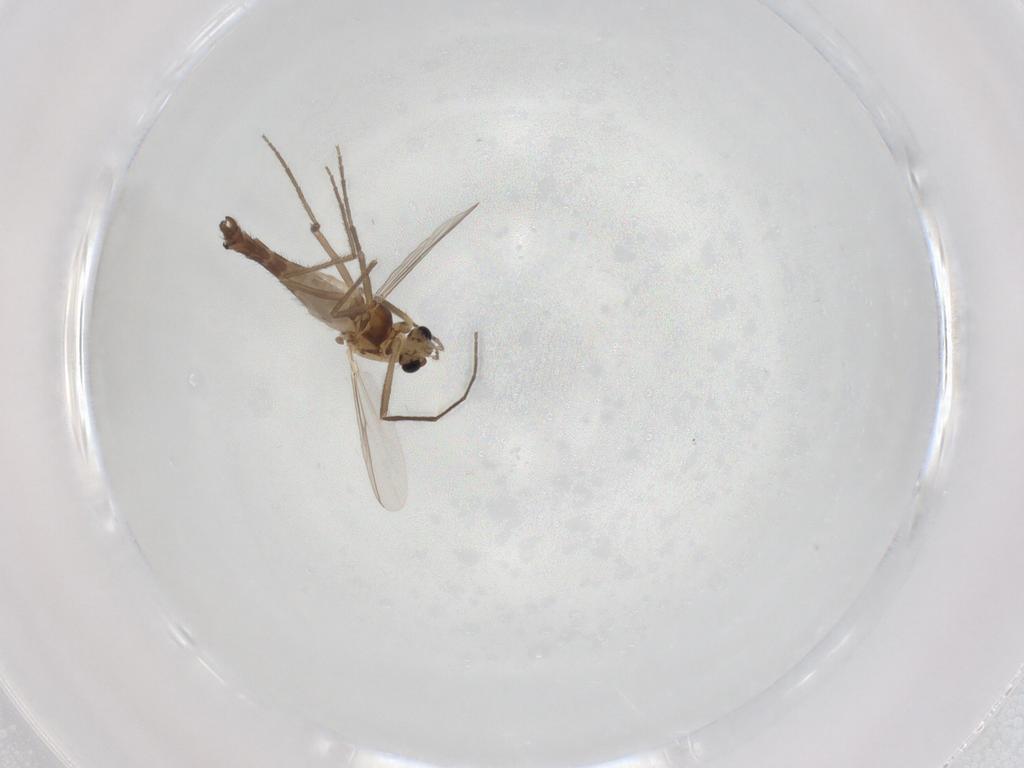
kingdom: Animalia
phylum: Arthropoda
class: Insecta
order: Diptera
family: Chironomidae
